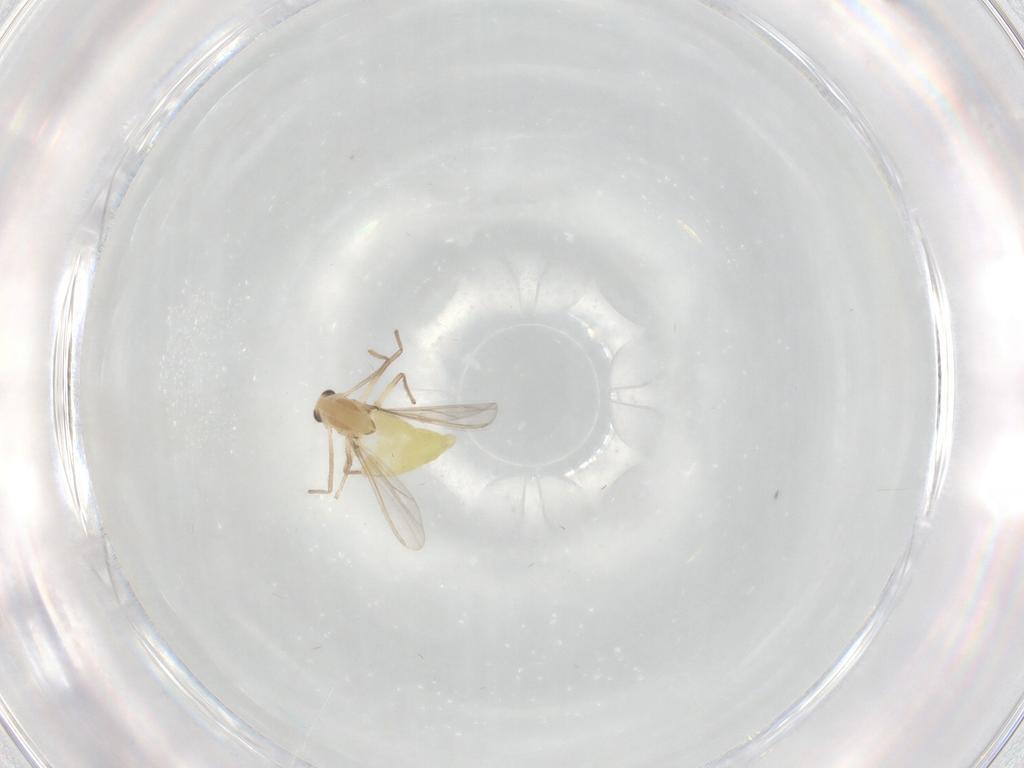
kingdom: Animalia
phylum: Arthropoda
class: Insecta
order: Diptera
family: Chironomidae
